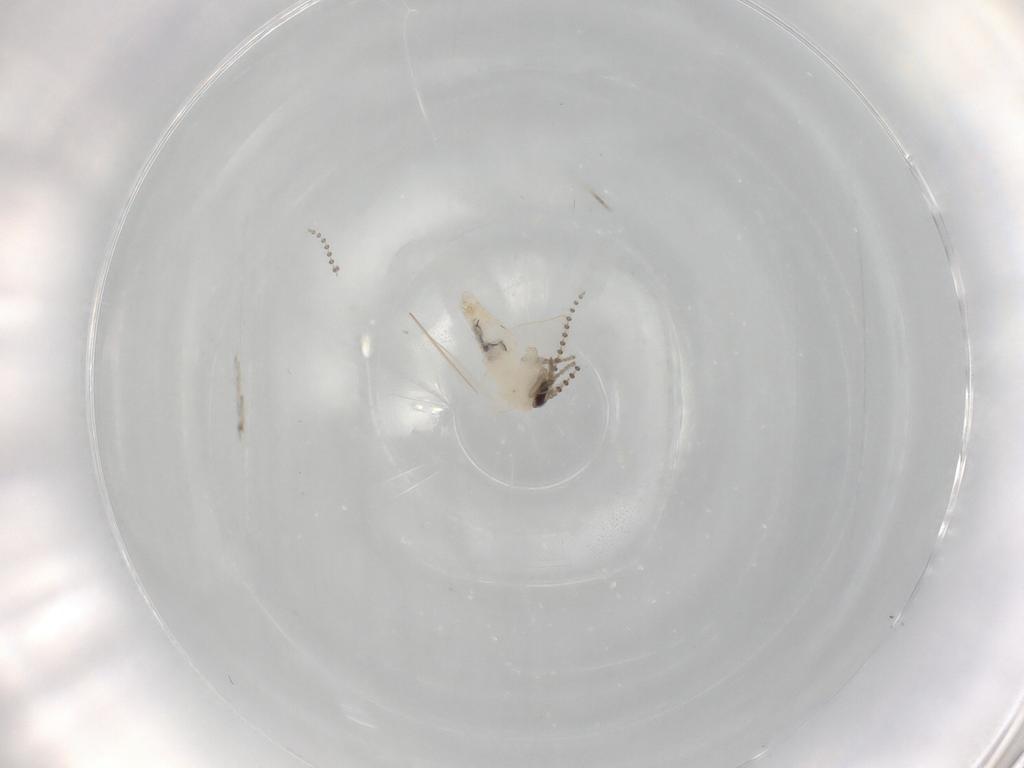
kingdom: Animalia
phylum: Arthropoda
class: Insecta
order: Diptera
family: Psychodidae
